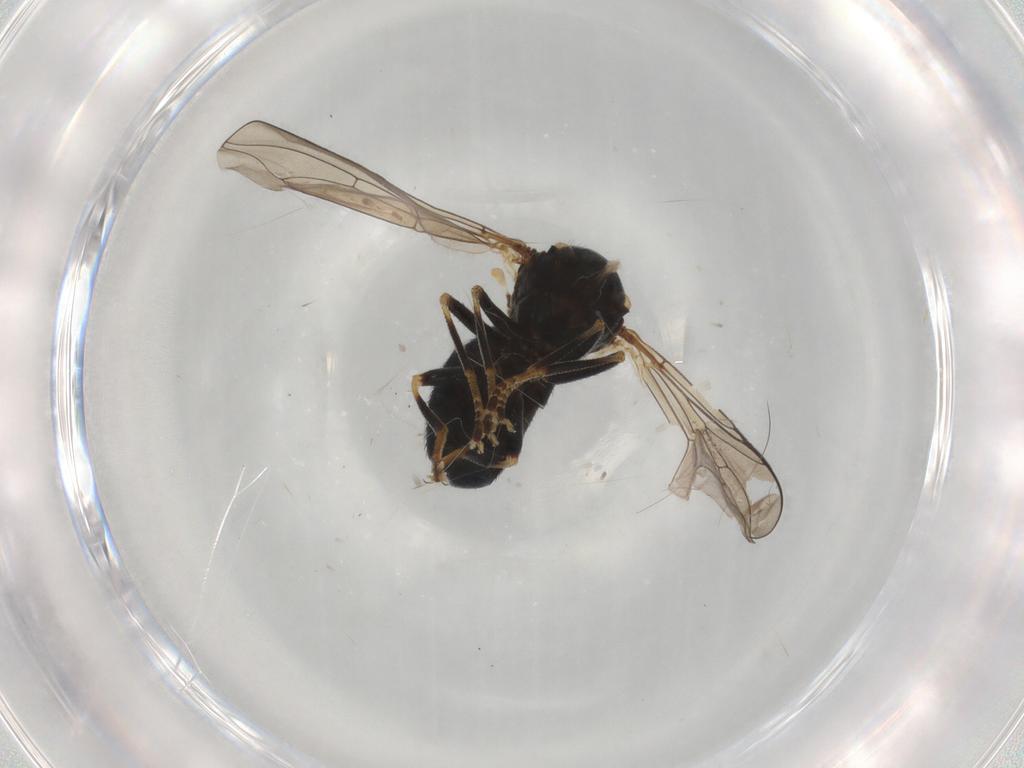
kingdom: Animalia
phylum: Arthropoda
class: Insecta
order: Diptera
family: Pipunculidae
